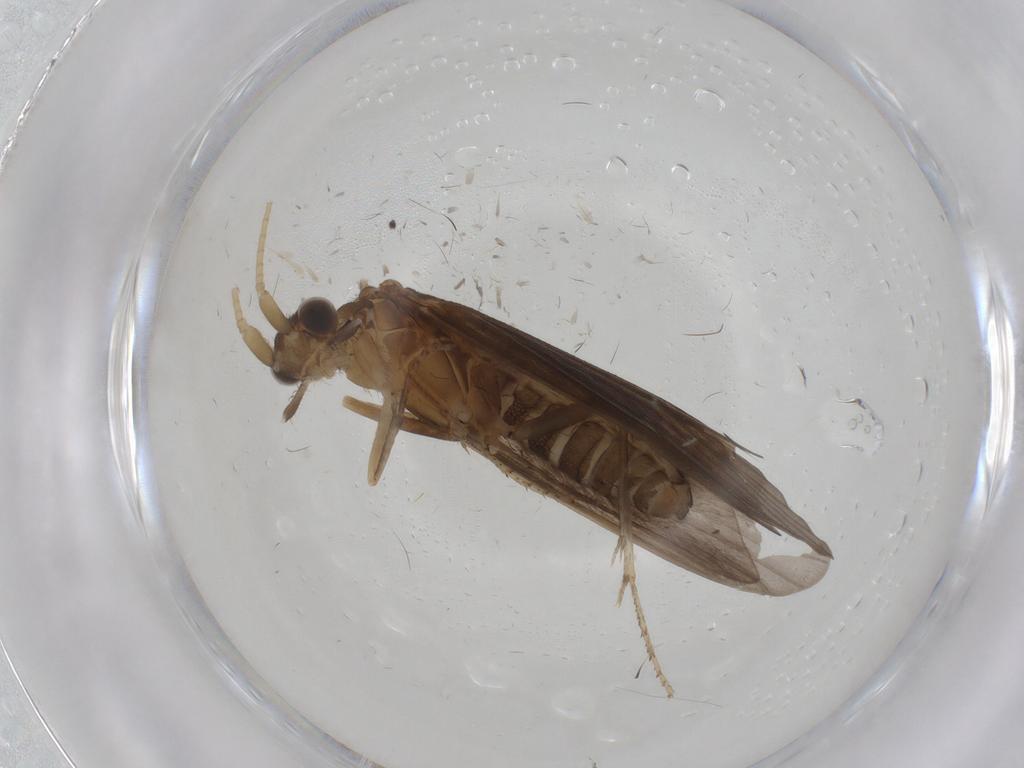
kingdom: Animalia
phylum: Arthropoda
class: Insecta
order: Trichoptera
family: Helicopsychidae
